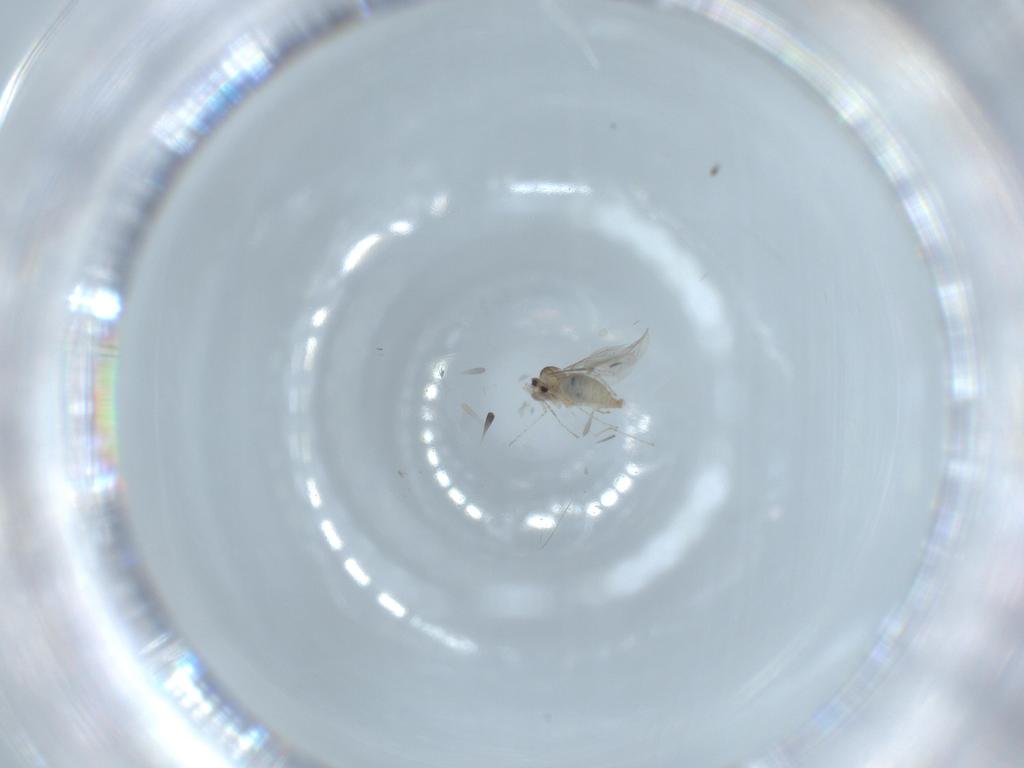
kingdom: Animalia
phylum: Arthropoda
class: Insecta
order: Diptera
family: Cecidomyiidae
